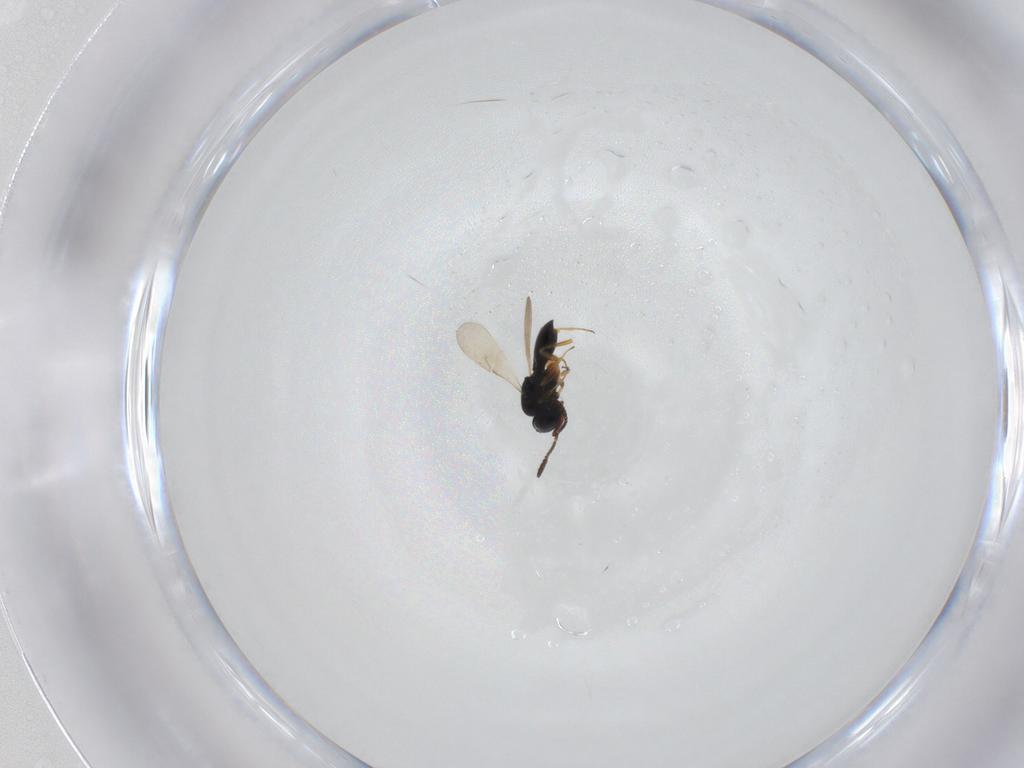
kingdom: Animalia
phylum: Arthropoda
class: Insecta
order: Hymenoptera
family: Scelionidae
